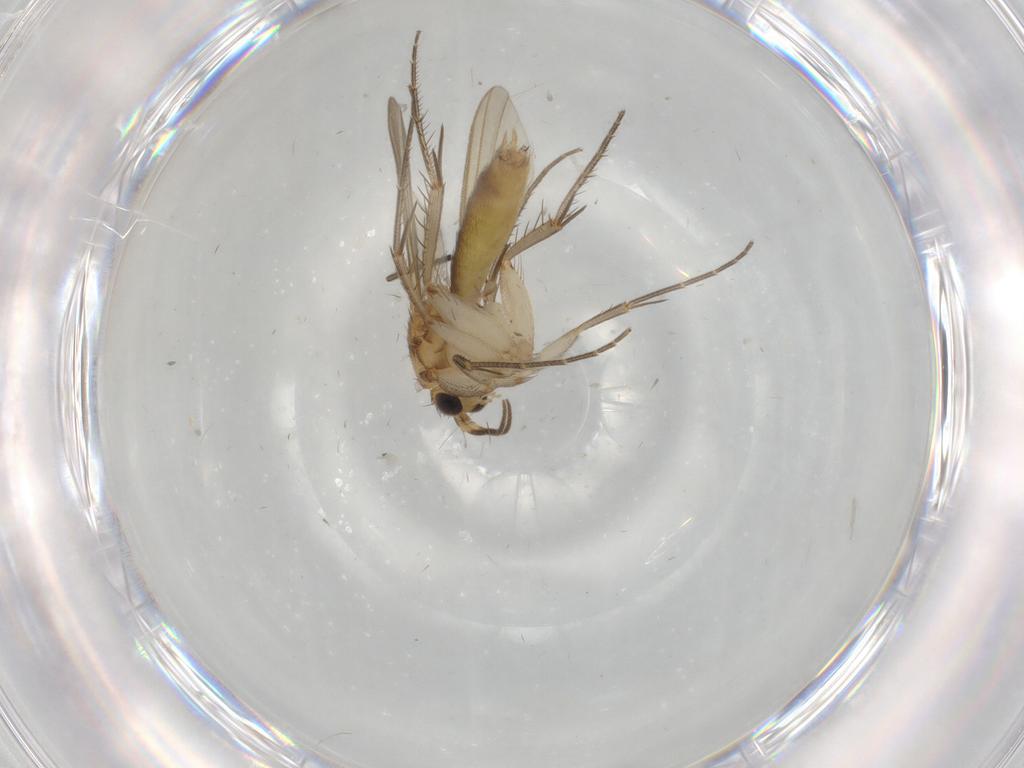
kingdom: Animalia
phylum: Arthropoda
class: Insecta
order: Diptera
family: Phoridae
